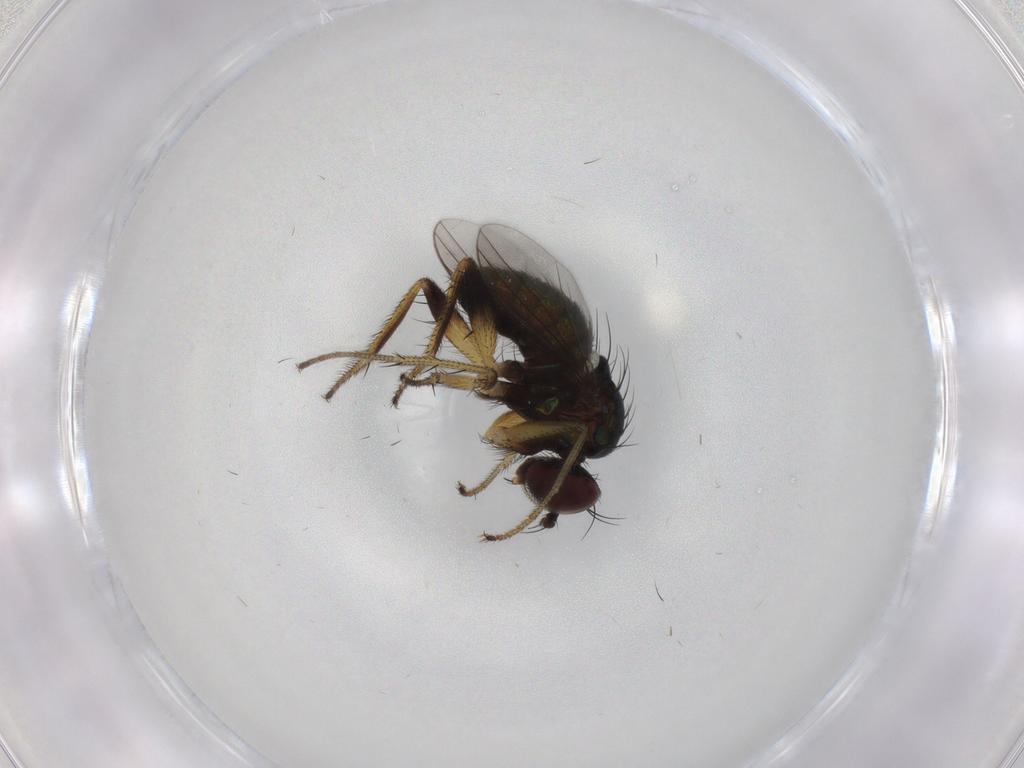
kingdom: Animalia
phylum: Arthropoda
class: Insecta
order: Diptera
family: Dolichopodidae
